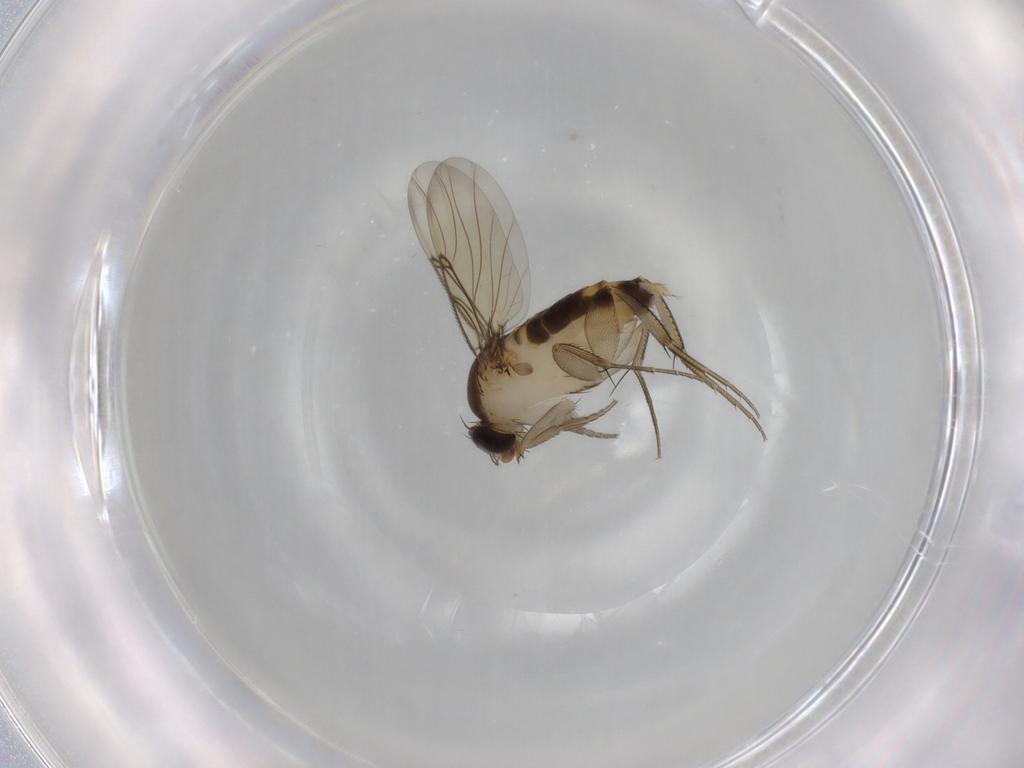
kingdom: Animalia
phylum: Arthropoda
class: Insecta
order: Diptera
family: Phoridae
